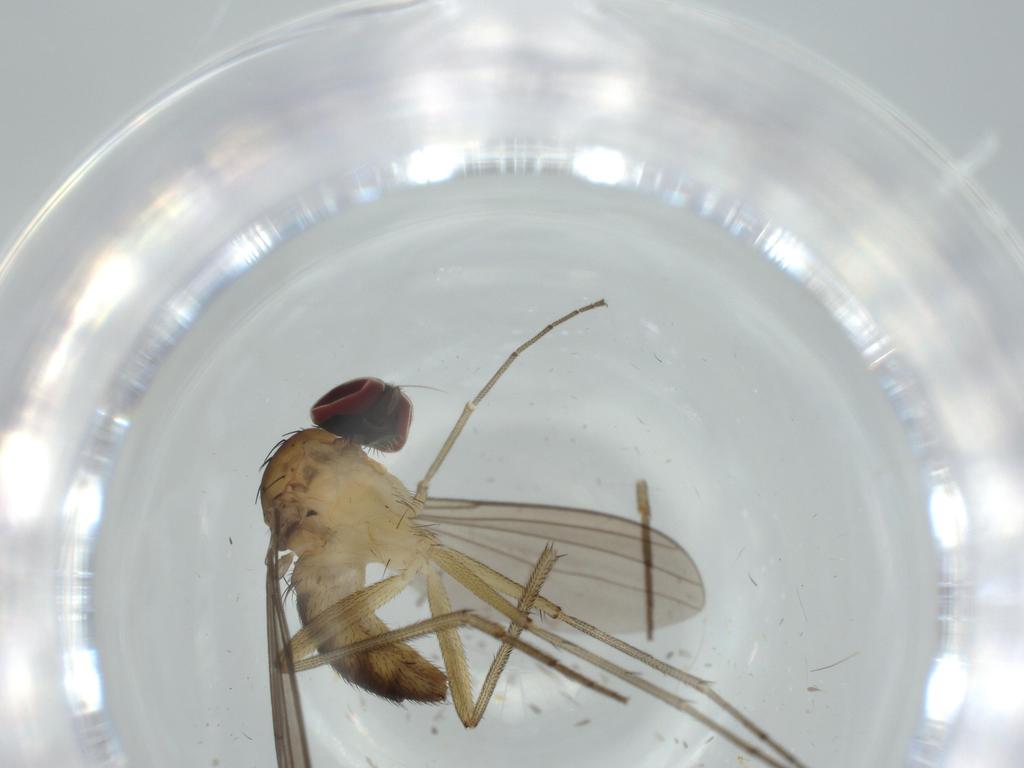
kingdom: Animalia
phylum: Arthropoda
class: Insecta
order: Diptera
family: Dolichopodidae
